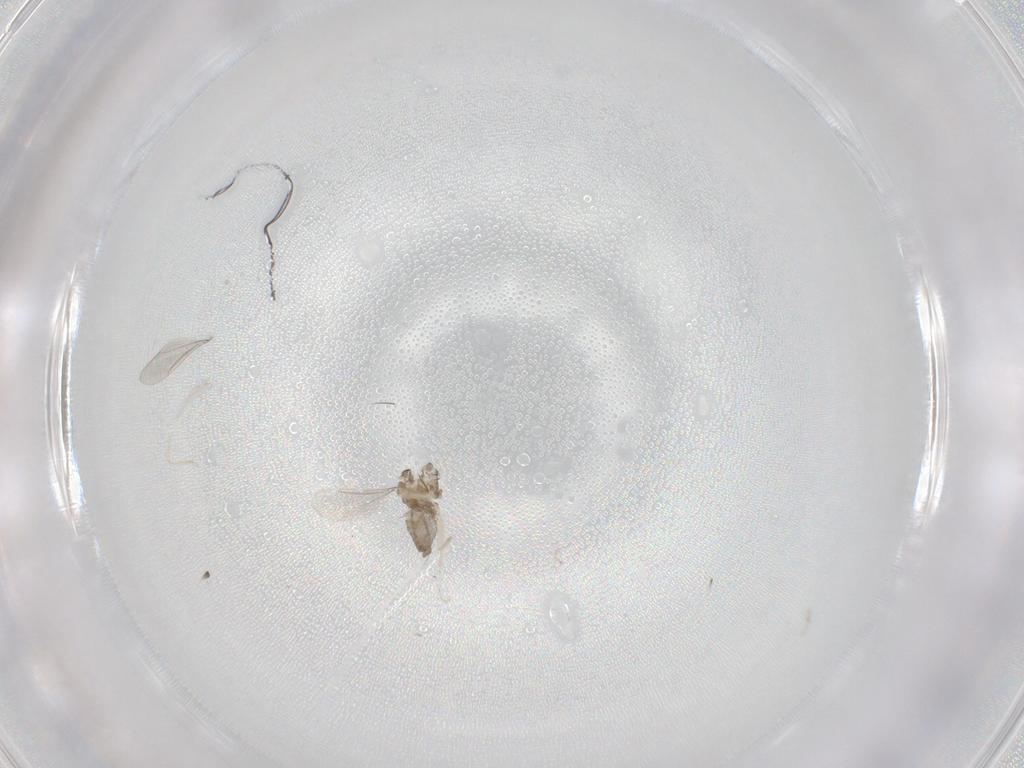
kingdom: Animalia
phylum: Arthropoda
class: Insecta
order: Diptera
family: Cecidomyiidae
